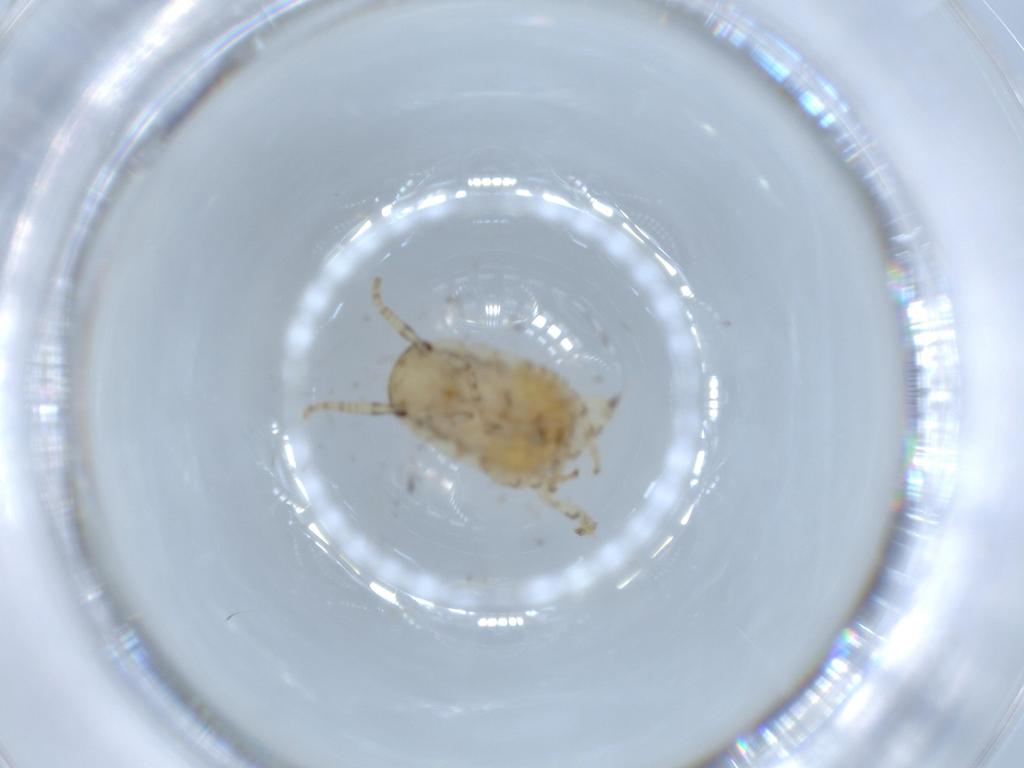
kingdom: Animalia
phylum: Arthropoda
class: Insecta
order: Blattodea
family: Ectobiidae
